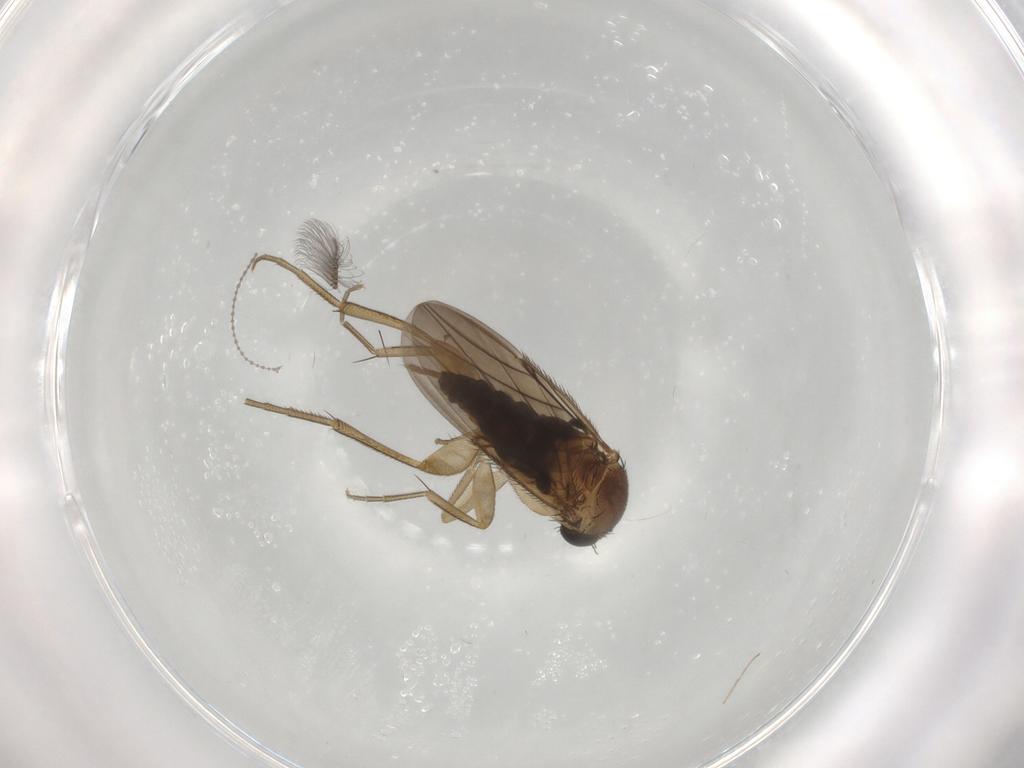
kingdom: Animalia
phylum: Arthropoda
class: Insecta
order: Diptera
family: Phoridae
